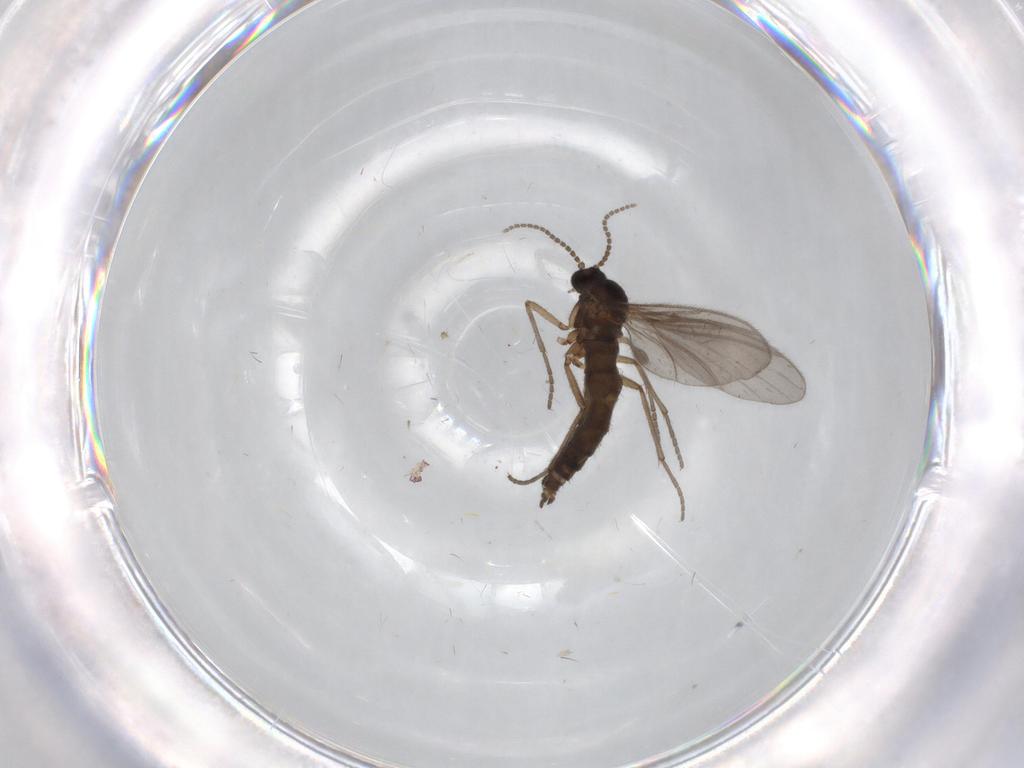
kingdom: Animalia
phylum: Arthropoda
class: Insecta
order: Diptera
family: Sciaridae
